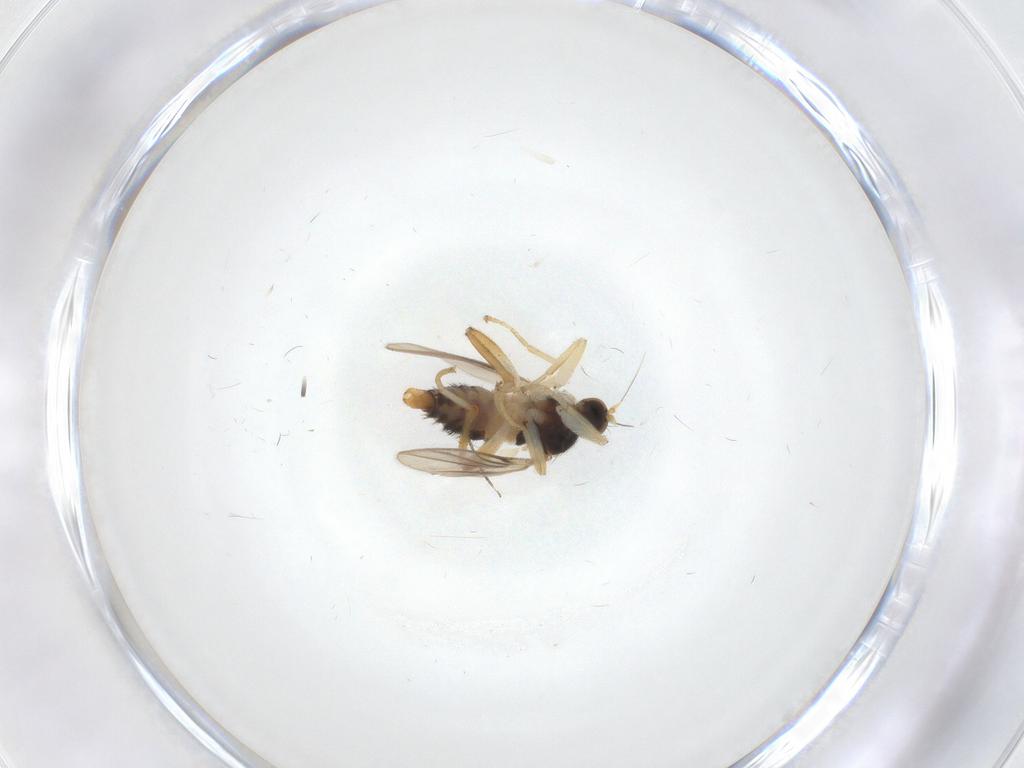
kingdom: Animalia
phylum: Arthropoda
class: Insecta
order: Diptera
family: Hybotidae
